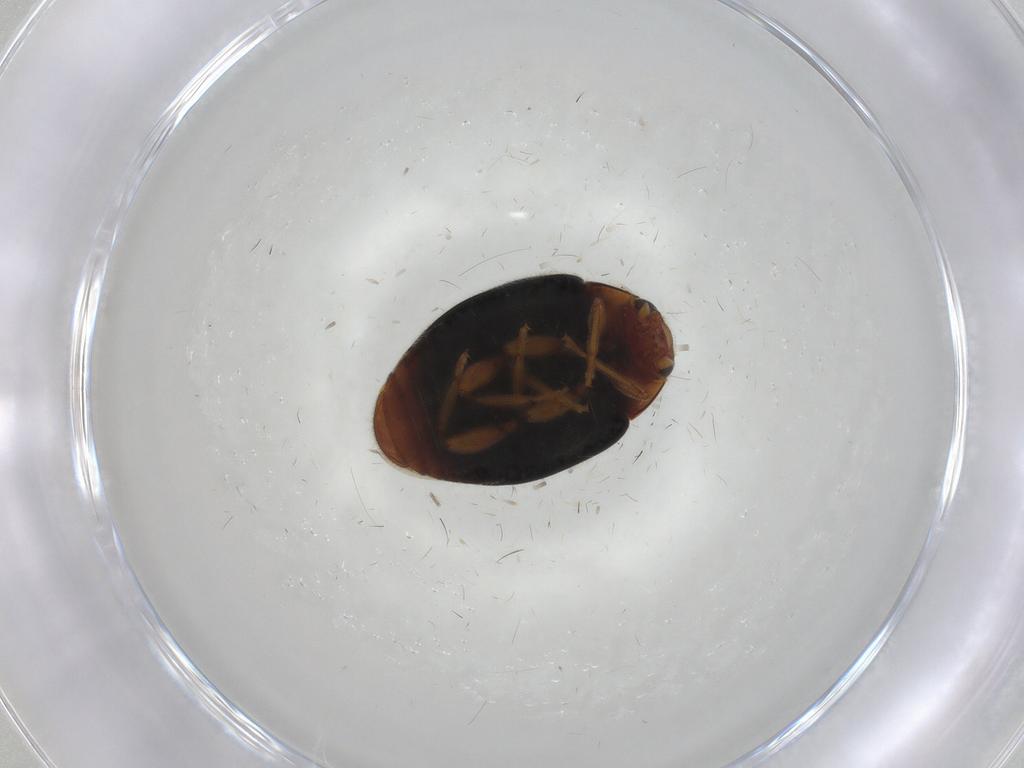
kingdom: Animalia
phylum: Arthropoda
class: Insecta
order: Coleoptera
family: Coccinellidae
